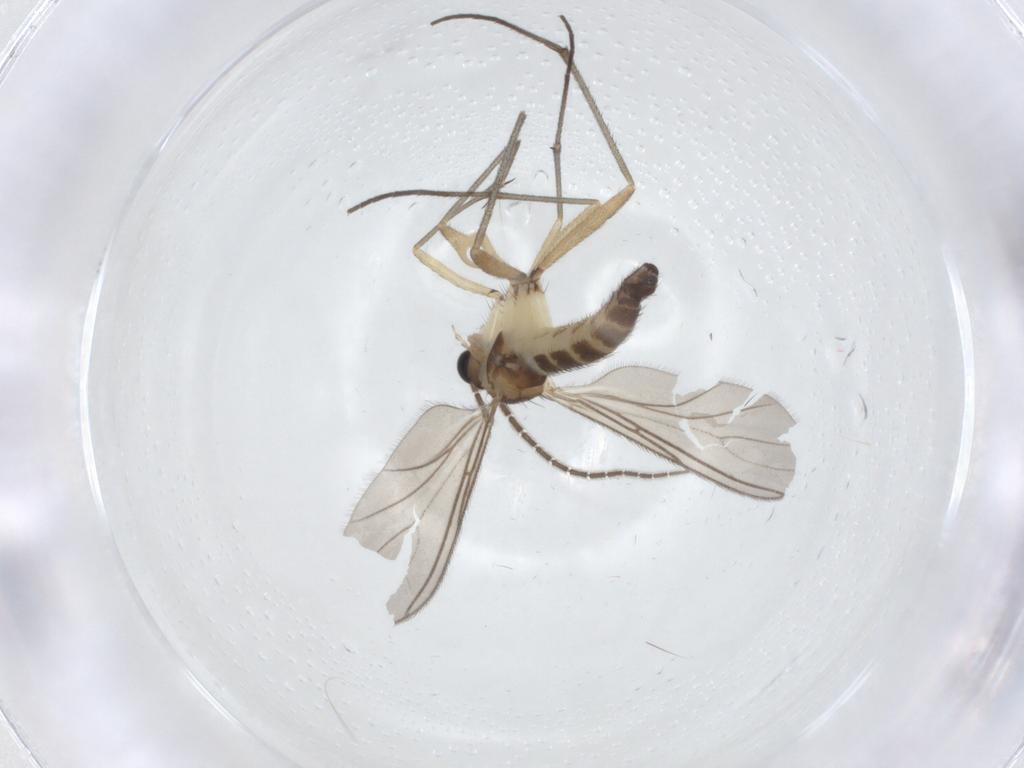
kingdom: Animalia
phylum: Arthropoda
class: Insecta
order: Diptera
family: Sciaridae
